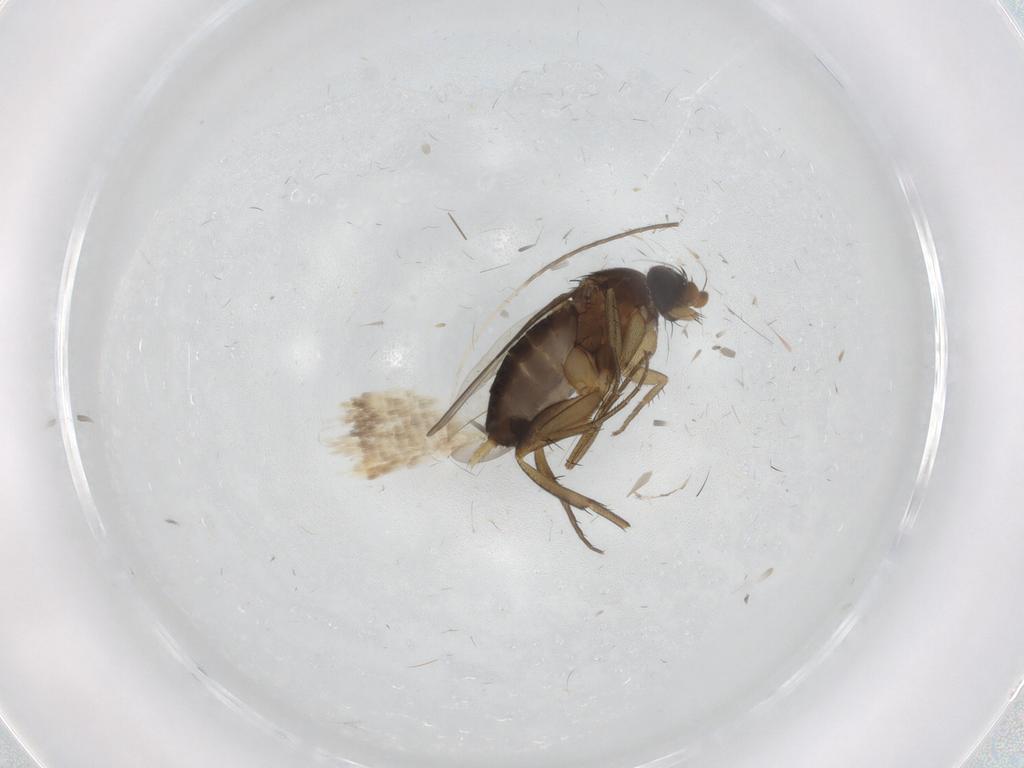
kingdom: Animalia
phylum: Arthropoda
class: Insecta
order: Diptera
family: Phoridae
